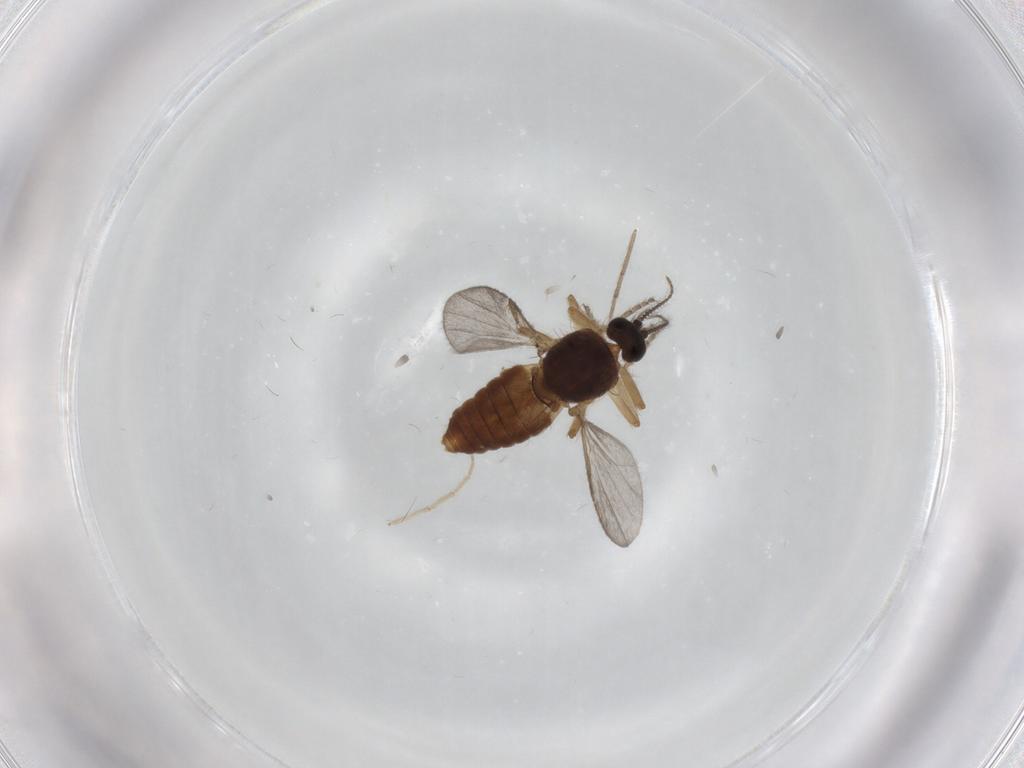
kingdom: Animalia
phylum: Arthropoda
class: Insecta
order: Diptera
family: Ceratopogonidae
